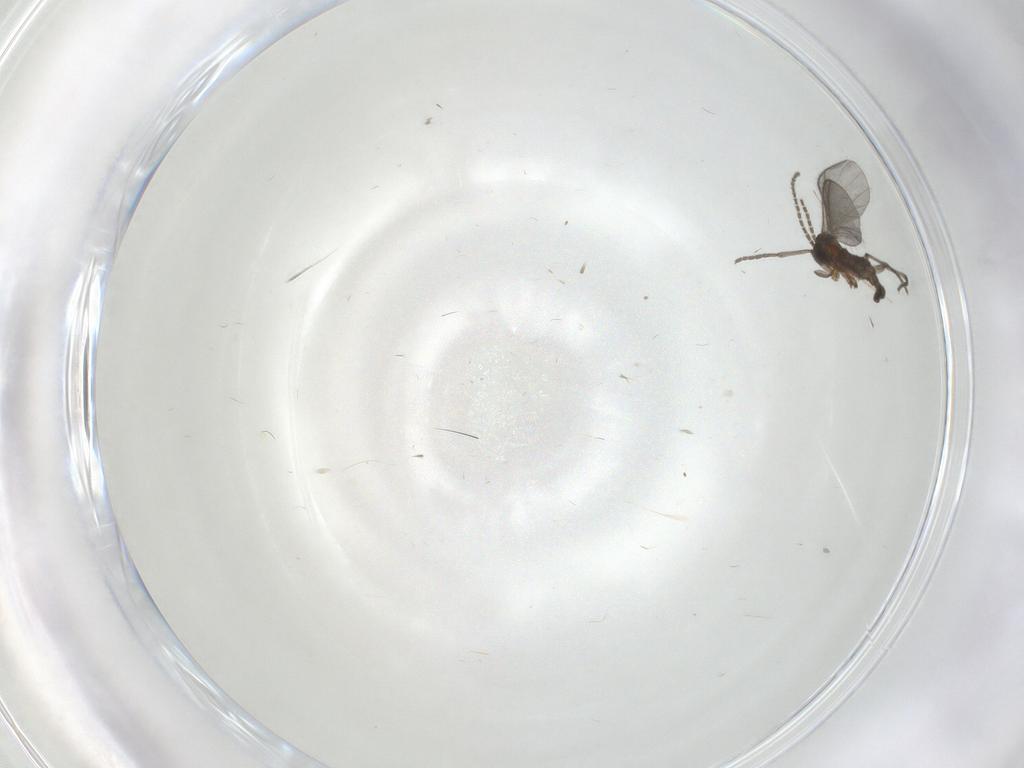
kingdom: Animalia
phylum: Arthropoda
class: Insecta
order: Diptera
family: Sciaridae
